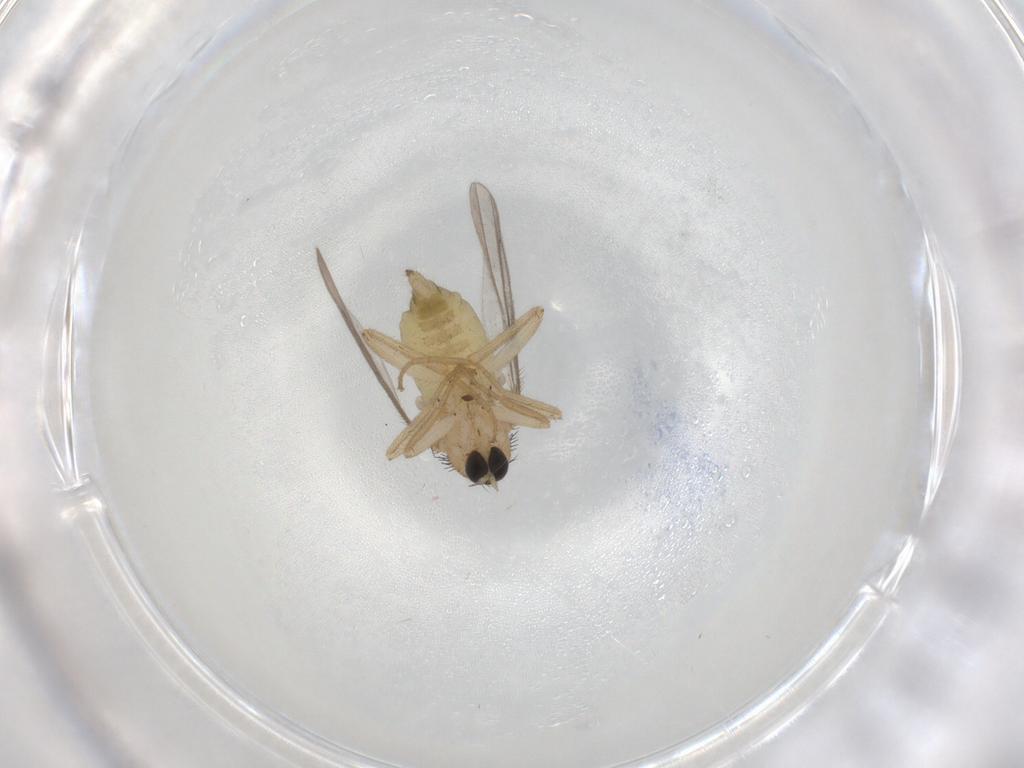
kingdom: Animalia
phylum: Arthropoda
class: Insecta
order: Diptera
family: Hybotidae
